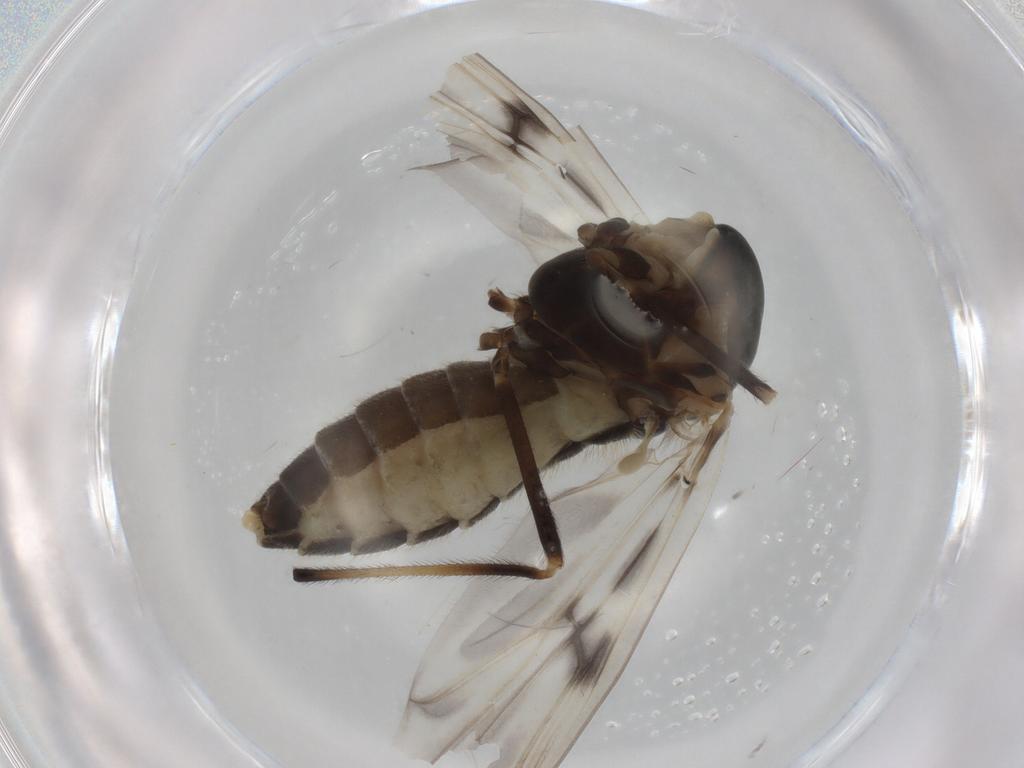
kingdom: Animalia
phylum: Arthropoda
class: Insecta
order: Diptera
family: Chironomidae
